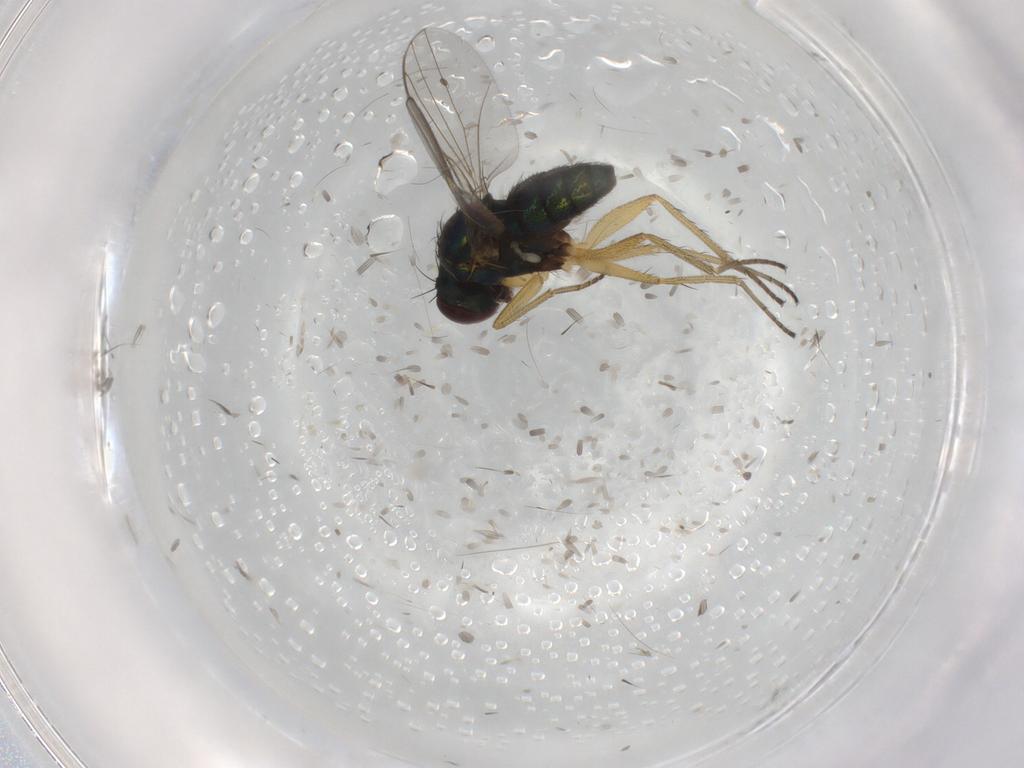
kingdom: Animalia
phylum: Arthropoda
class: Insecta
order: Diptera
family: Dolichopodidae
